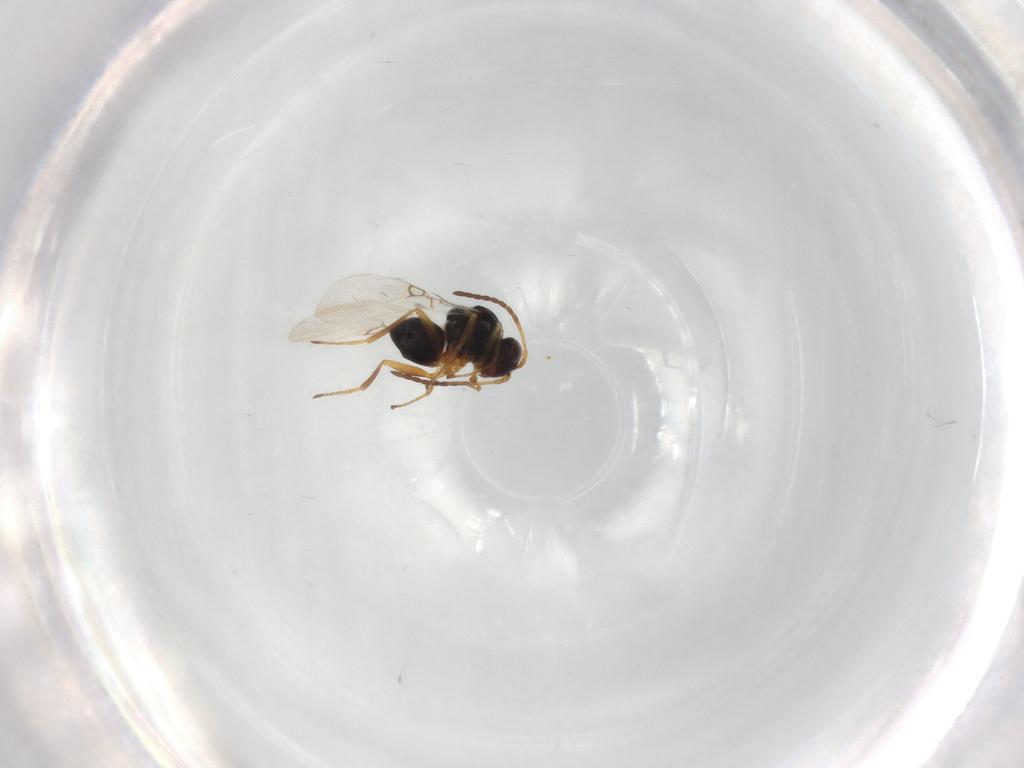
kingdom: Animalia
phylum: Arthropoda
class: Insecta
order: Hymenoptera
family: Figitidae
